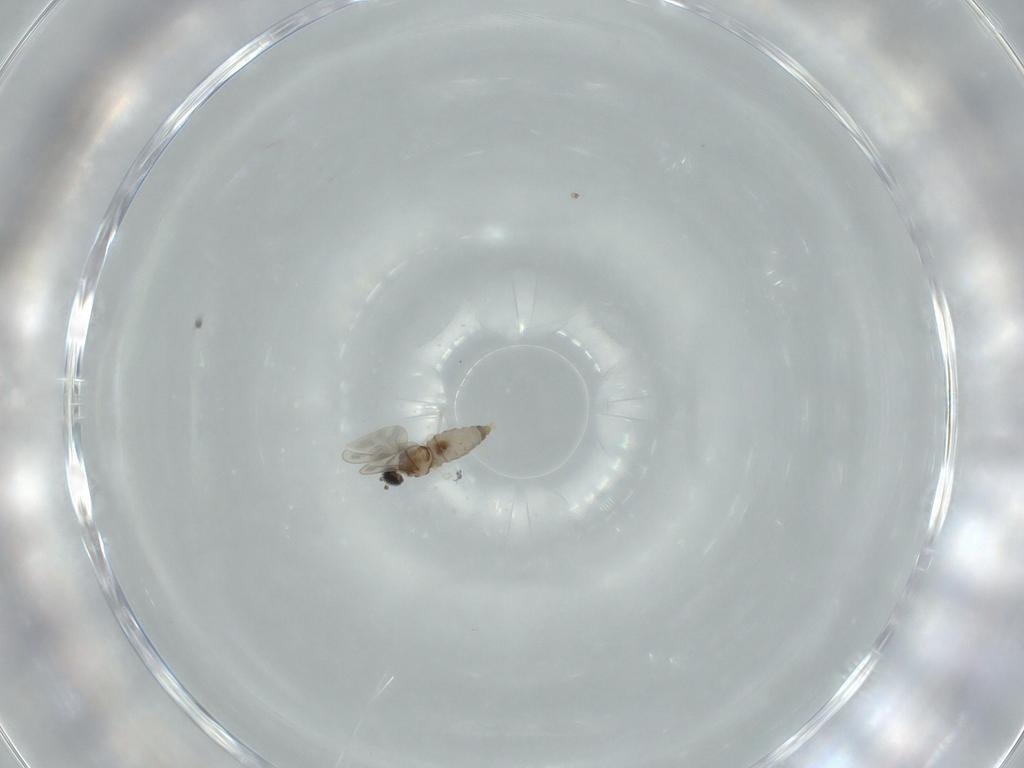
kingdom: Animalia
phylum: Arthropoda
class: Insecta
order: Diptera
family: Cecidomyiidae
